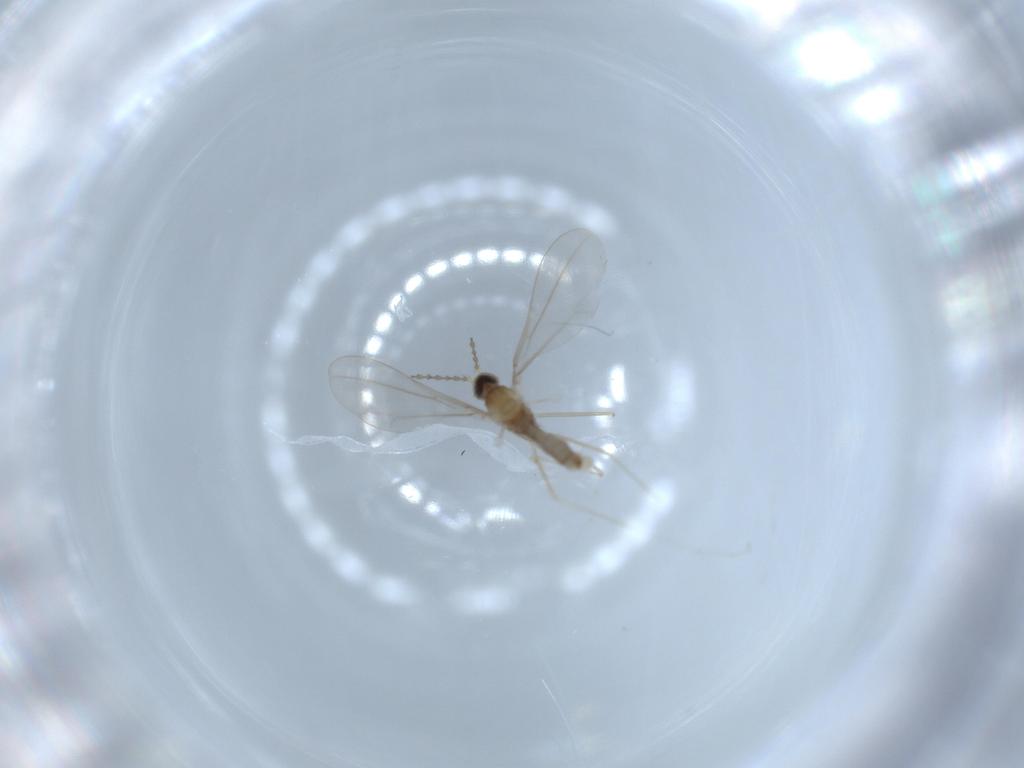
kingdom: Animalia
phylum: Arthropoda
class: Insecta
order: Diptera
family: Cecidomyiidae
